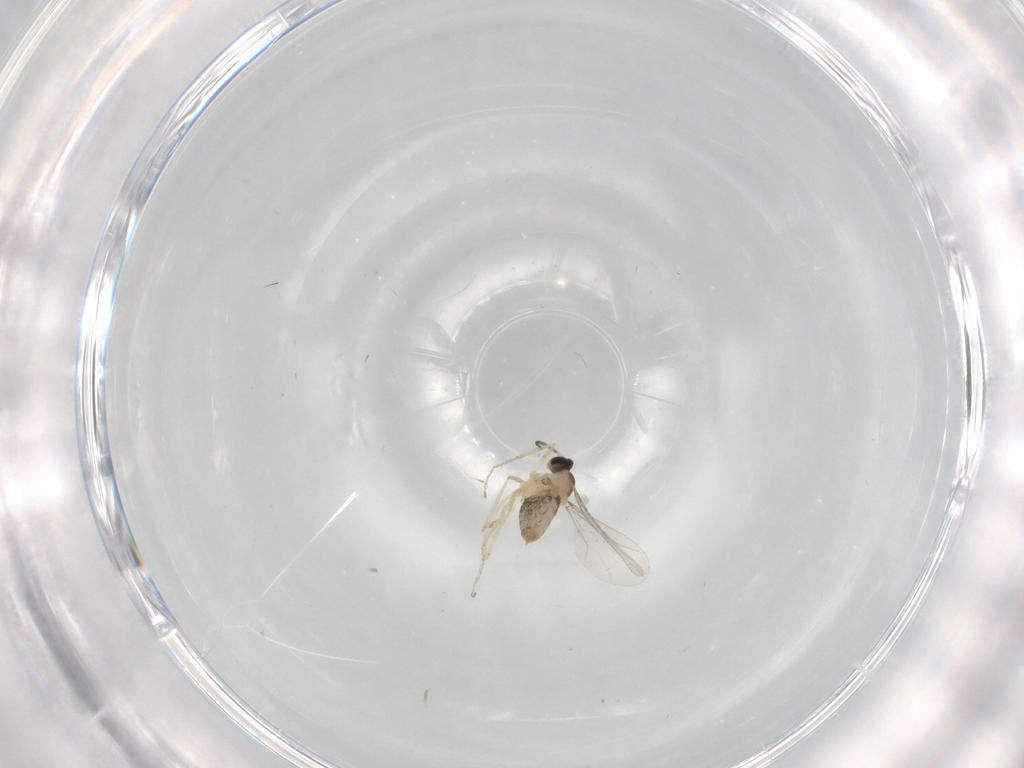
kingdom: Animalia
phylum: Arthropoda
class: Insecta
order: Diptera
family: Cecidomyiidae
